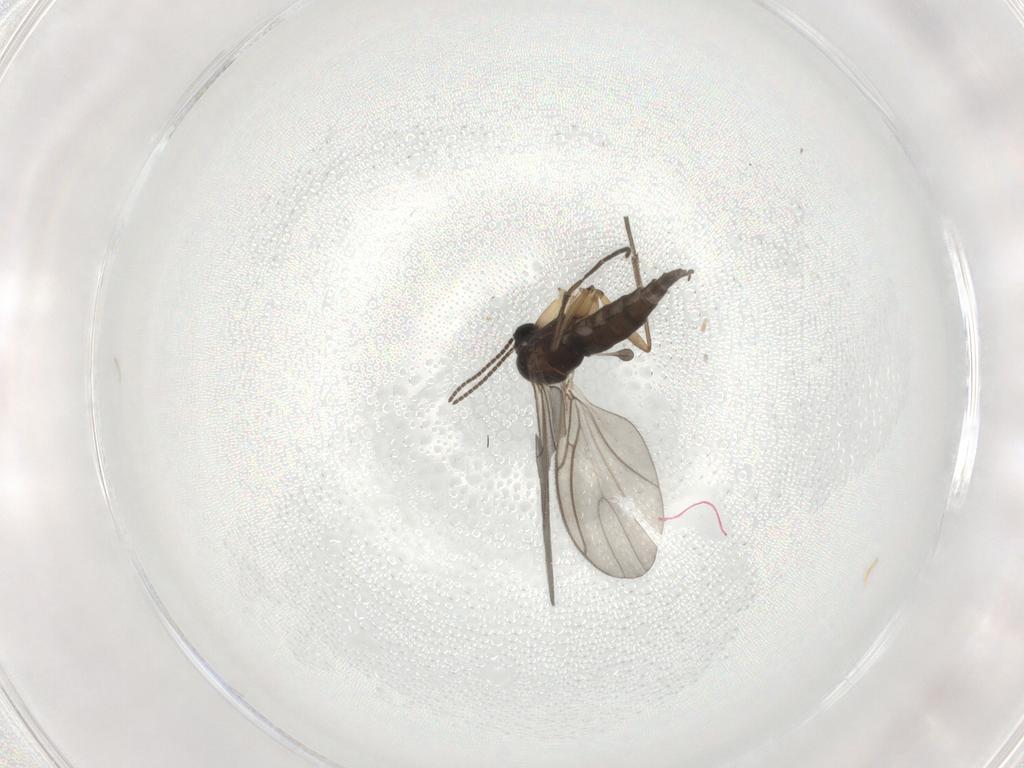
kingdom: Animalia
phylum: Arthropoda
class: Insecta
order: Diptera
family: Sciaridae
